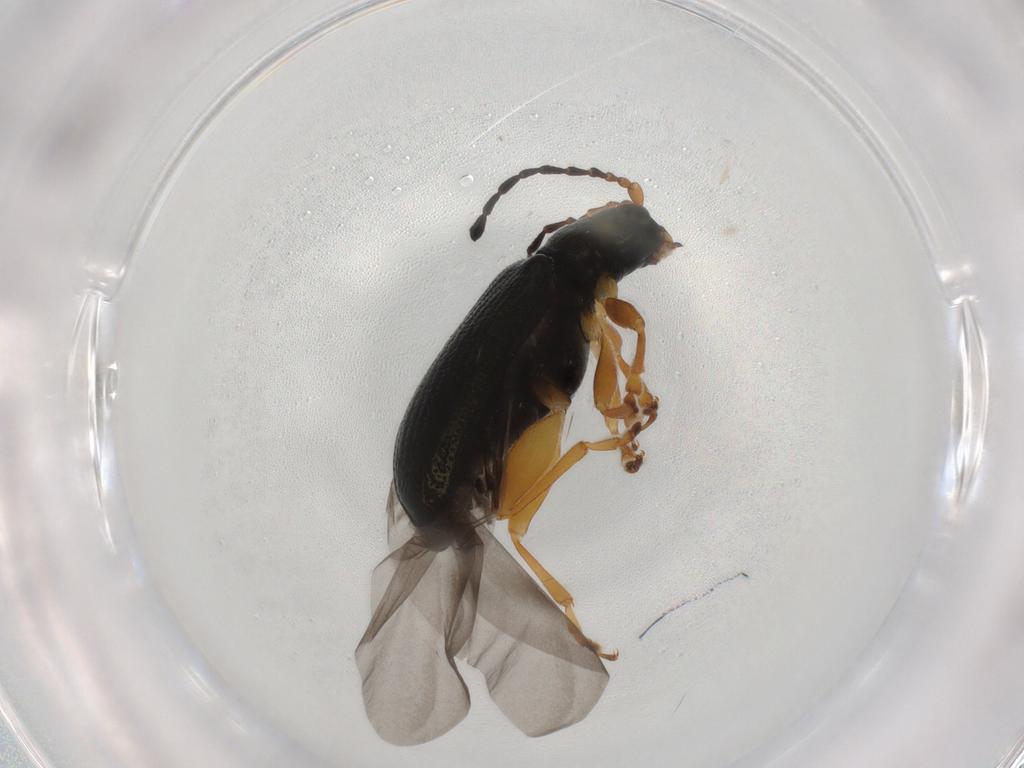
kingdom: Animalia
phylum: Arthropoda
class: Insecta
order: Coleoptera
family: Chrysomelidae
